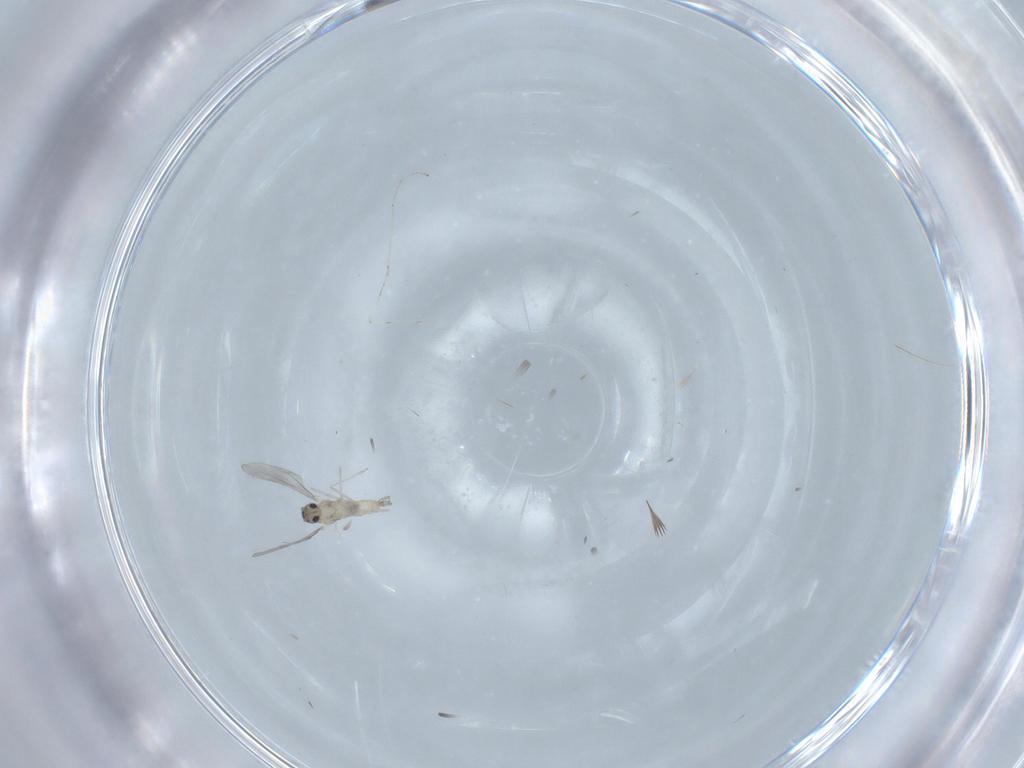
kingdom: Animalia
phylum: Arthropoda
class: Insecta
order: Diptera
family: Cecidomyiidae
